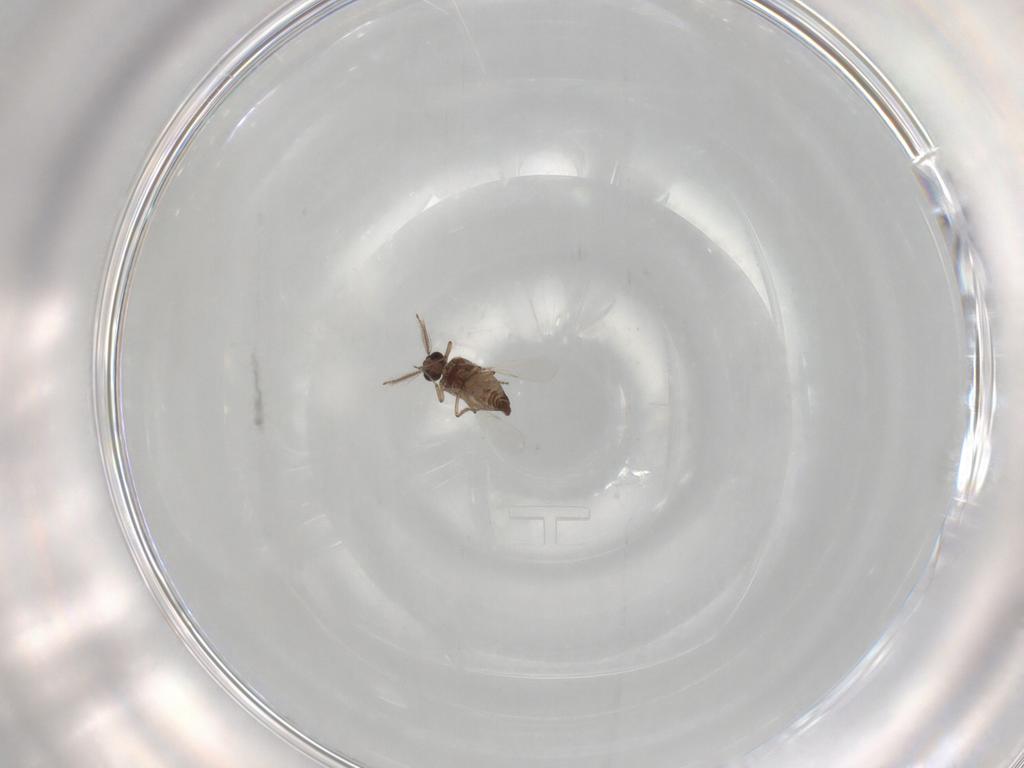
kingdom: Animalia
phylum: Arthropoda
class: Insecta
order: Diptera
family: Ceratopogonidae
